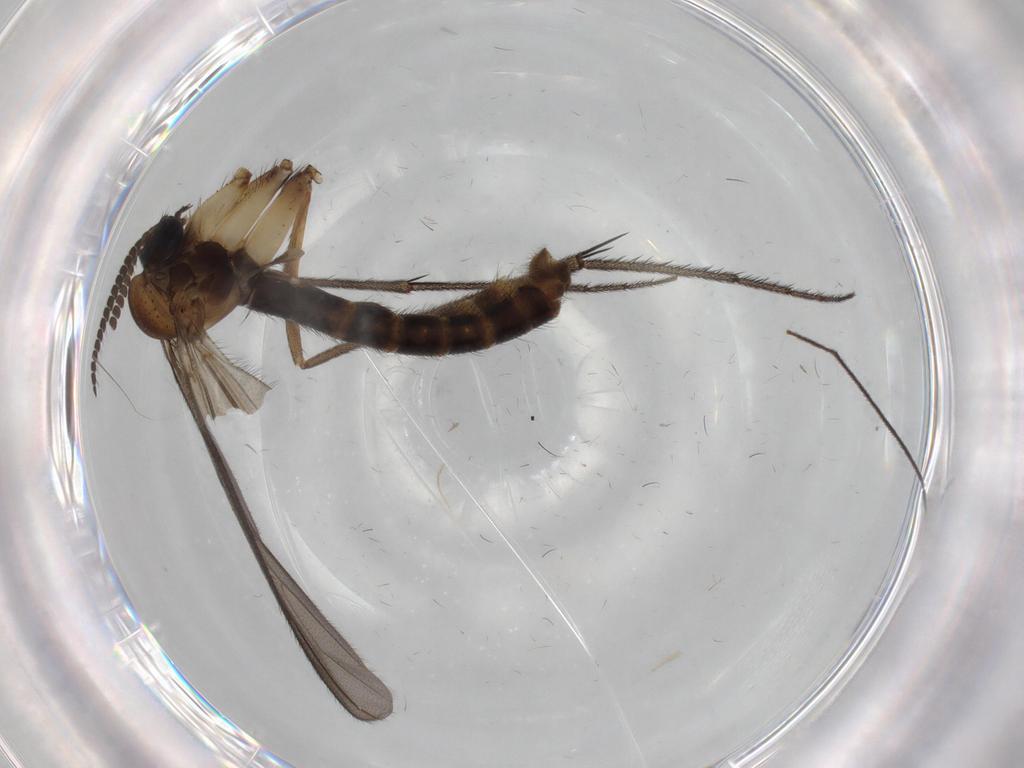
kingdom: Animalia
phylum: Arthropoda
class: Insecta
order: Diptera
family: Ditomyiidae
